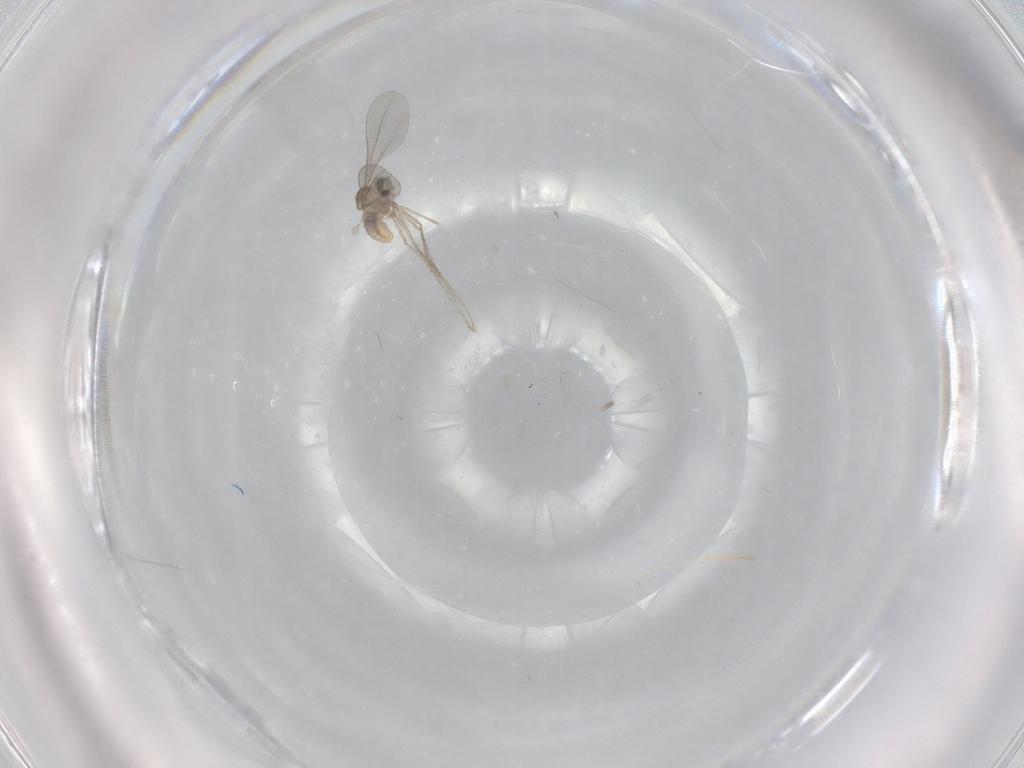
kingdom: Animalia
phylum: Arthropoda
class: Insecta
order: Diptera
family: Cecidomyiidae
